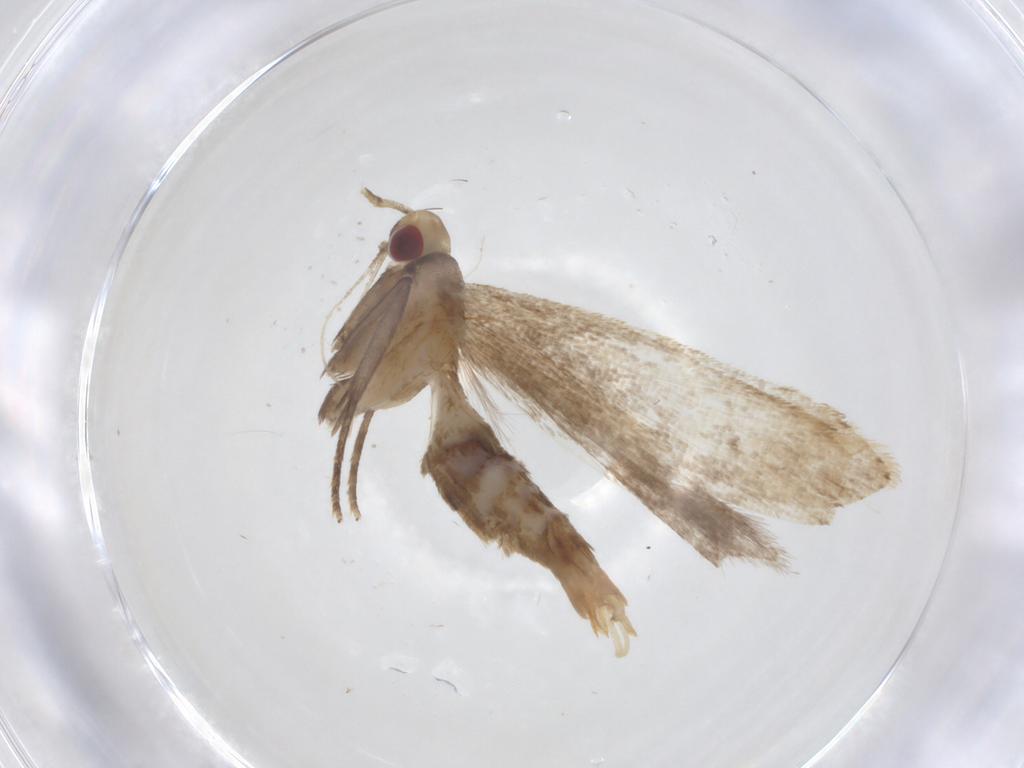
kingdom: Animalia
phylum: Arthropoda
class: Insecta
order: Lepidoptera
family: Gelechiidae
